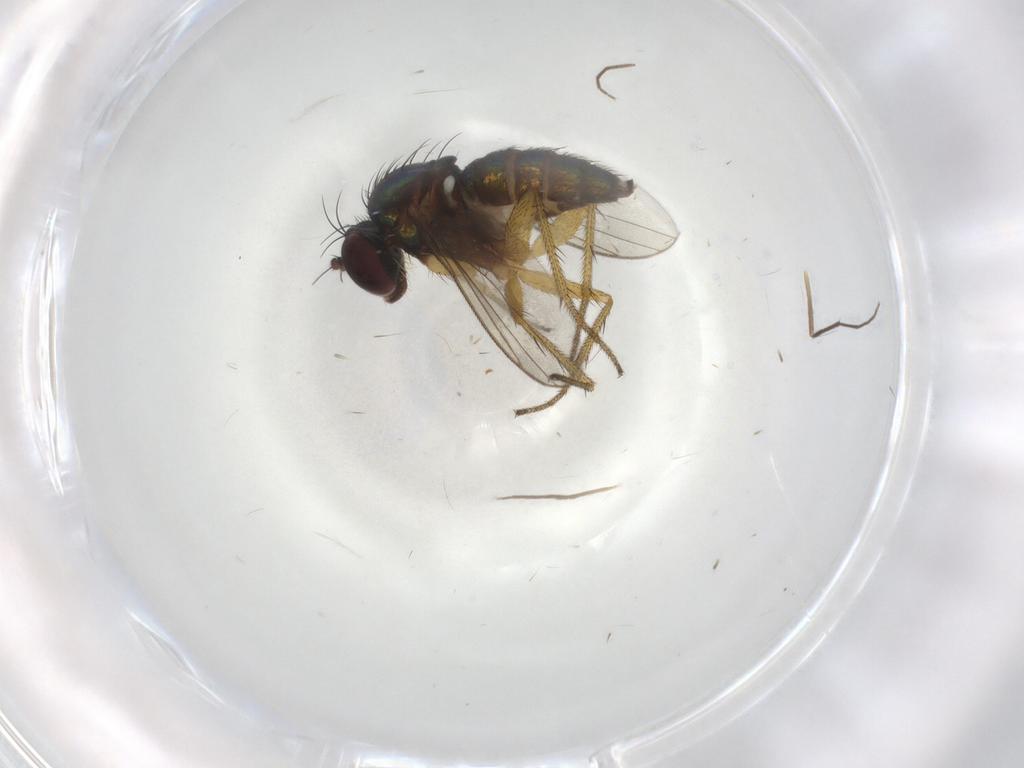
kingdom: Animalia
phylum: Arthropoda
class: Insecta
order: Diptera
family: Chironomidae
